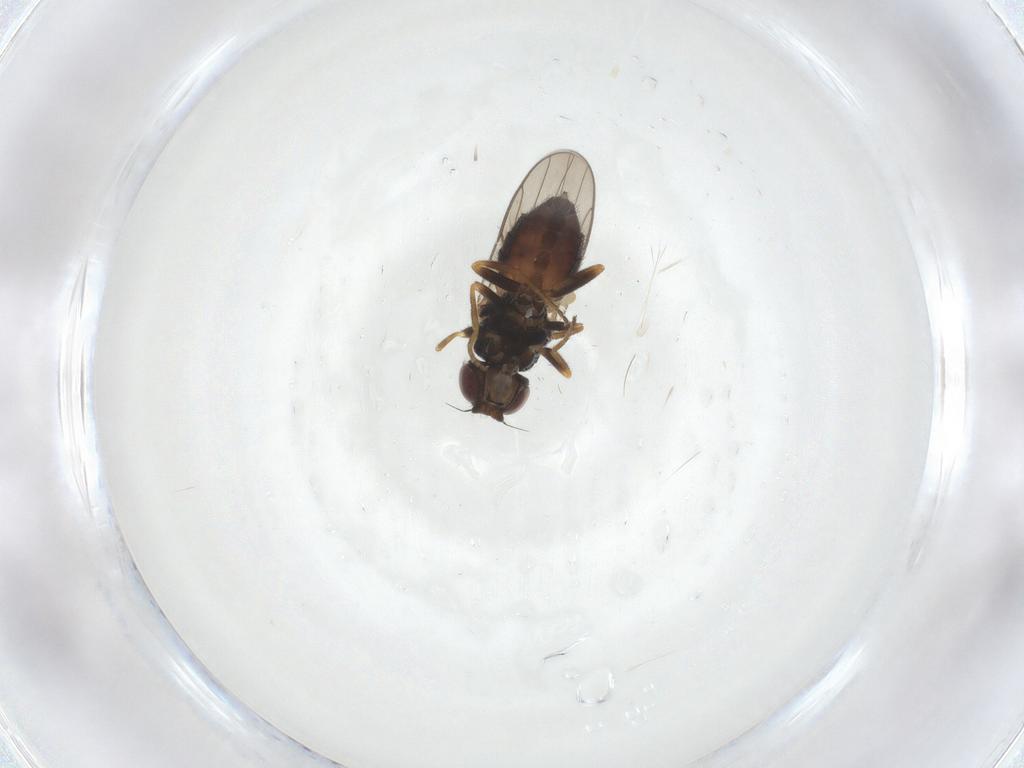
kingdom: Animalia
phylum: Arthropoda
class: Insecta
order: Diptera
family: Chloropidae
